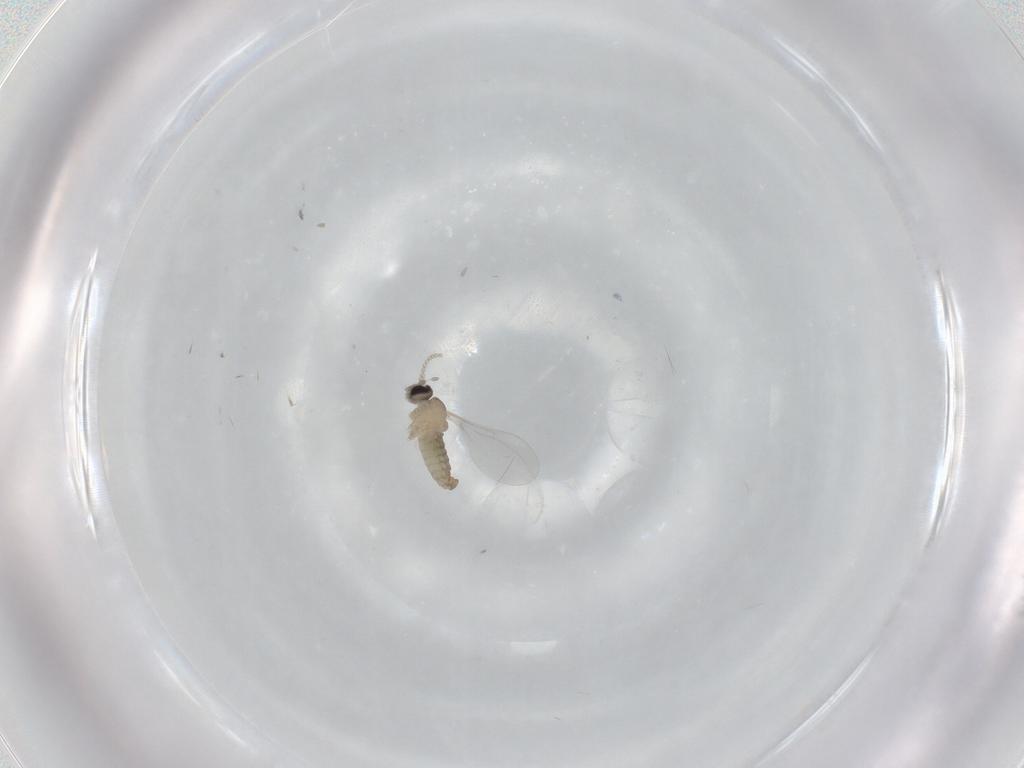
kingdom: Animalia
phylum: Arthropoda
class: Insecta
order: Diptera
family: Cecidomyiidae
